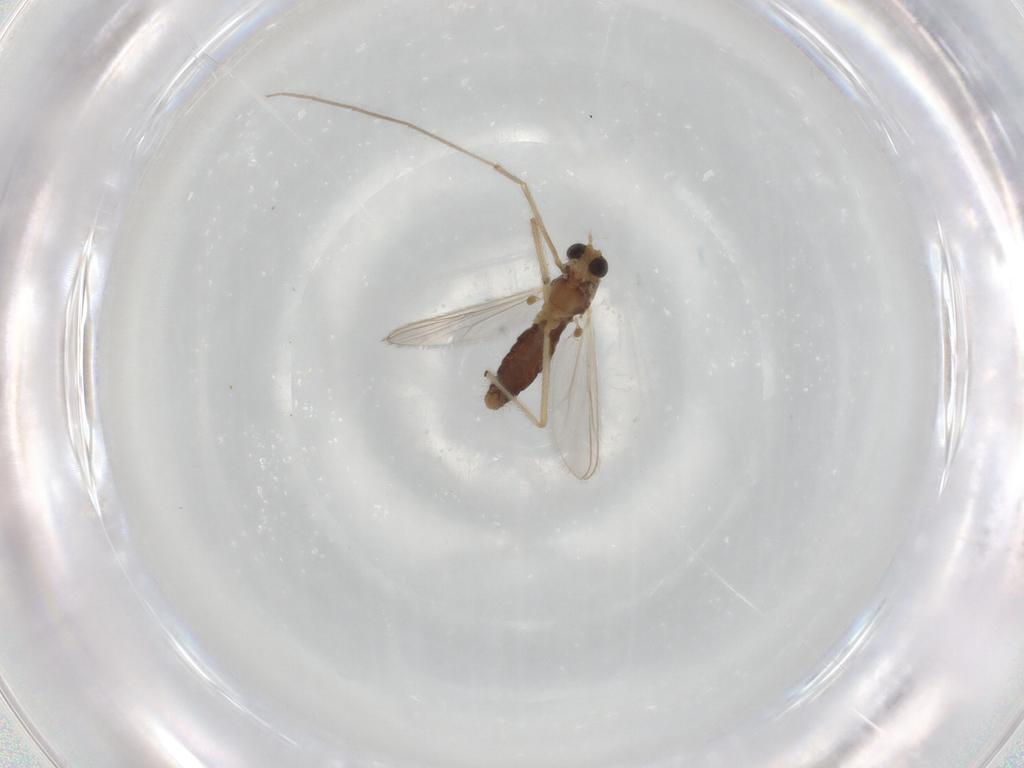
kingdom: Animalia
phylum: Arthropoda
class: Insecta
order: Diptera
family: Chironomidae
